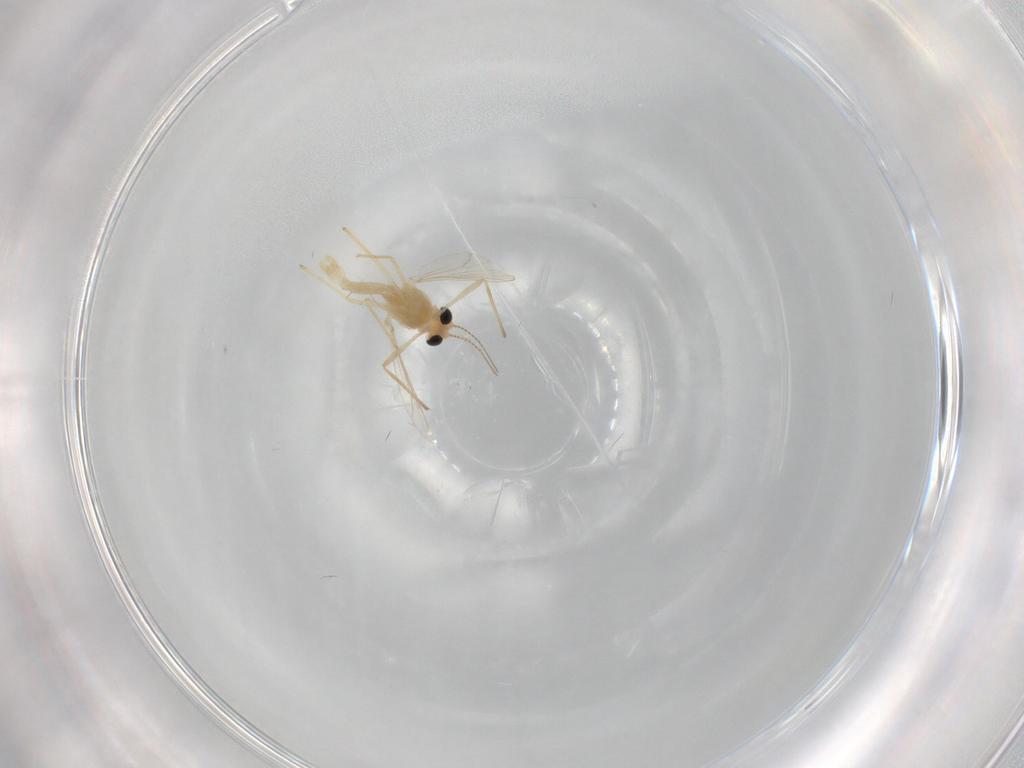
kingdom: Animalia
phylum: Arthropoda
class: Insecta
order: Diptera
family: Chironomidae
